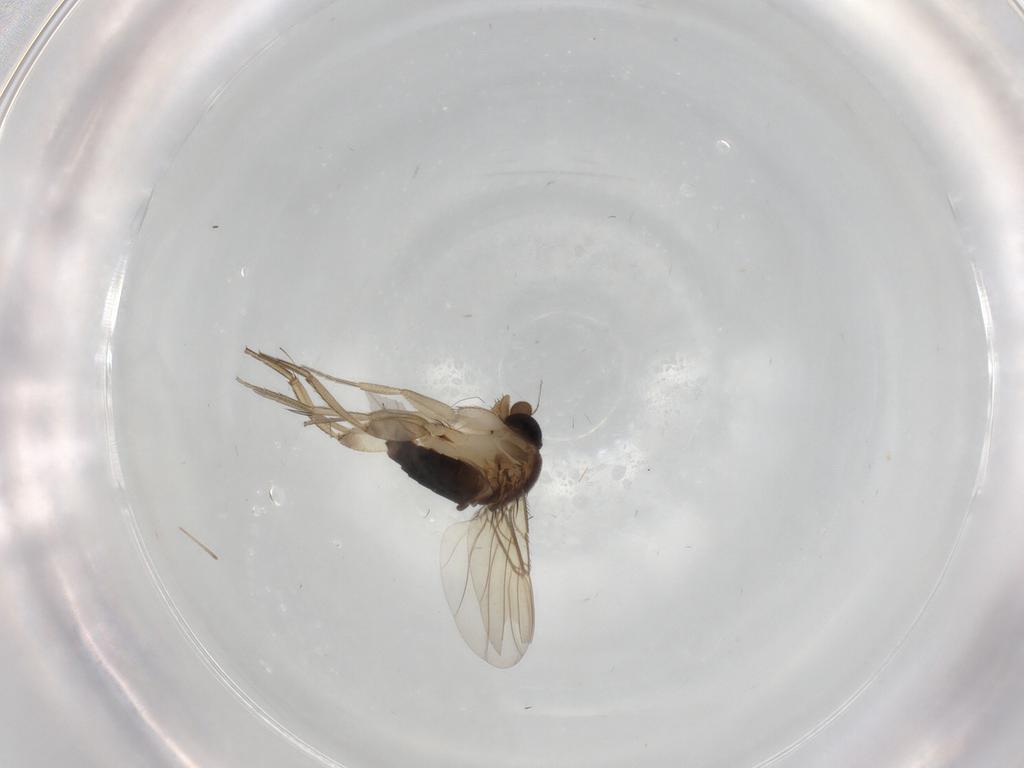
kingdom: Animalia
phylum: Arthropoda
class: Insecta
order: Diptera
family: Phoridae
